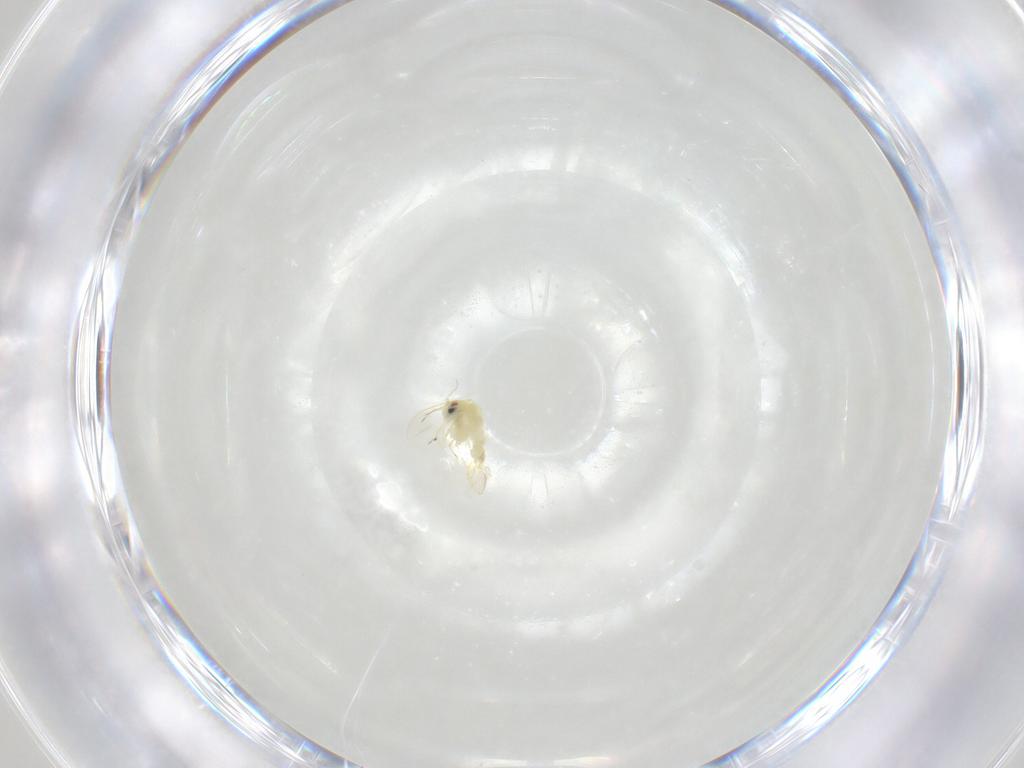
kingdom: Animalia
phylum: Arthropoda
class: Insecta
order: Hemiptera
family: Aleyrodidae
